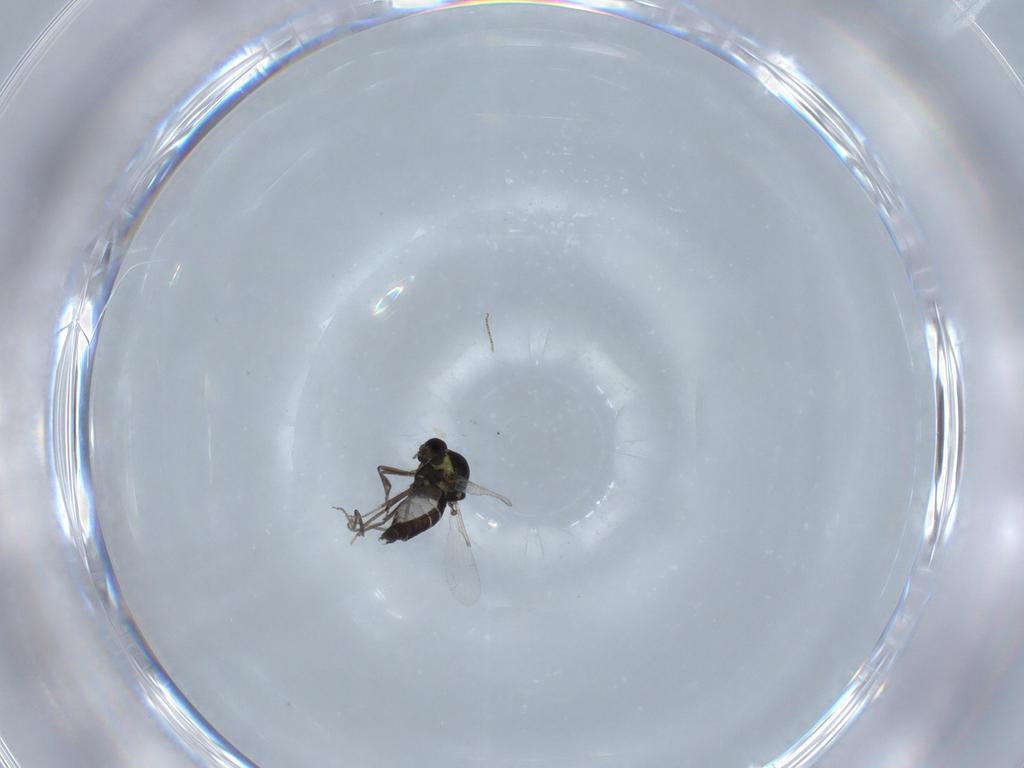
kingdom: Animalia
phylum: Arthropoda
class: Insecta
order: Diptera
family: Ceratopogonidae
